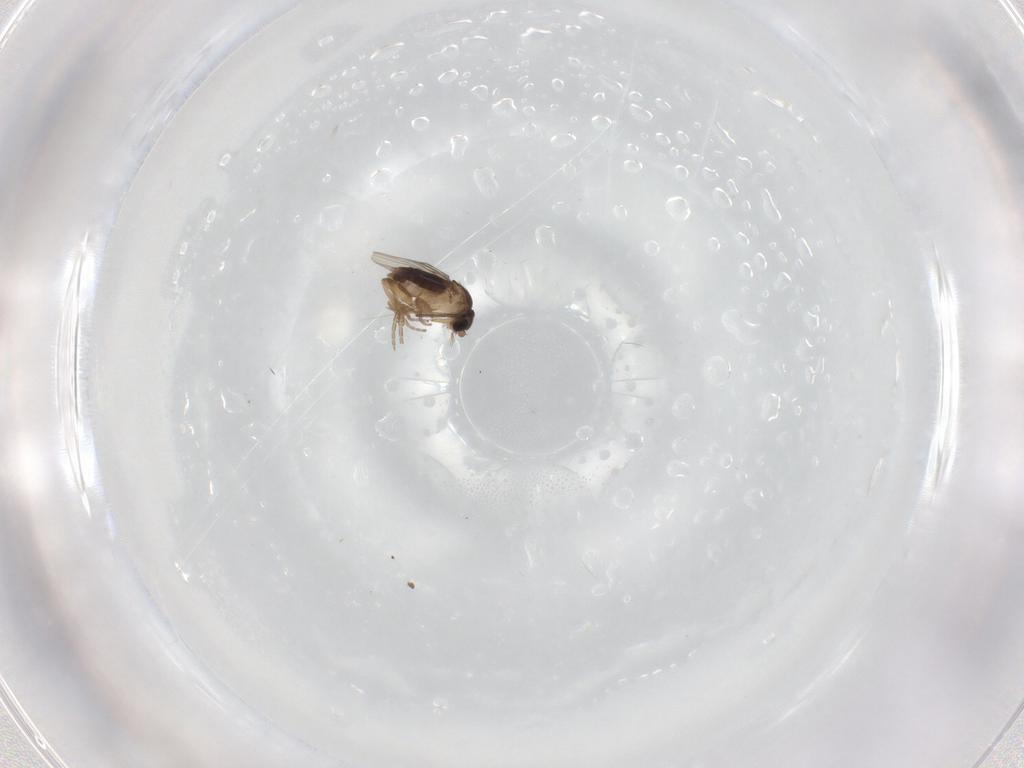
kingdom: Animalia
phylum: Arthropoda
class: Insecta
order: Diptera
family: Phoridae
